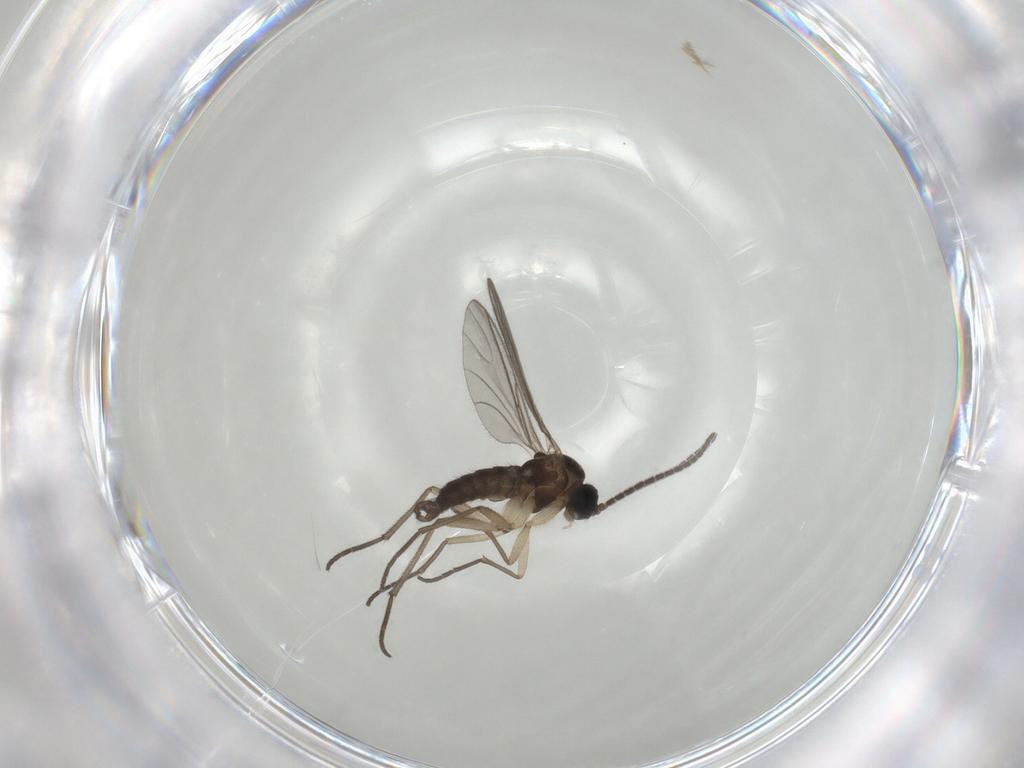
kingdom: Animalia
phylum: Arthropoda
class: Insecta
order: Diptera
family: Sciaridae
